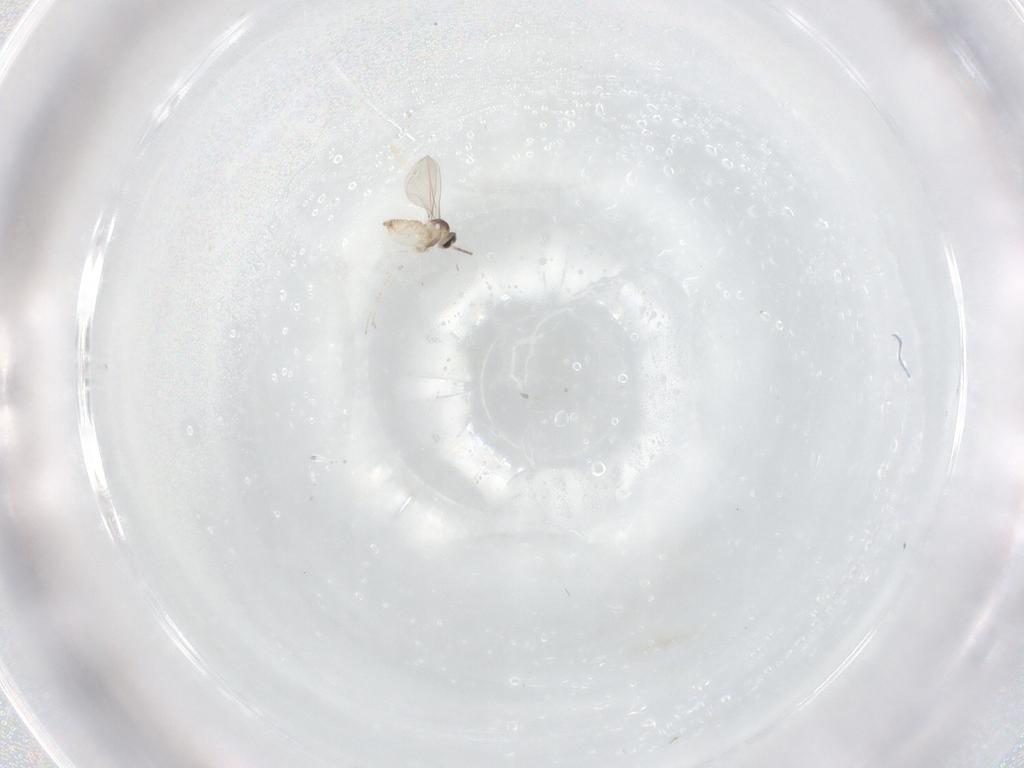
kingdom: Animalia
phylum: Arthropoda
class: Insecta
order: Diptera
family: Cecidomyiidae
